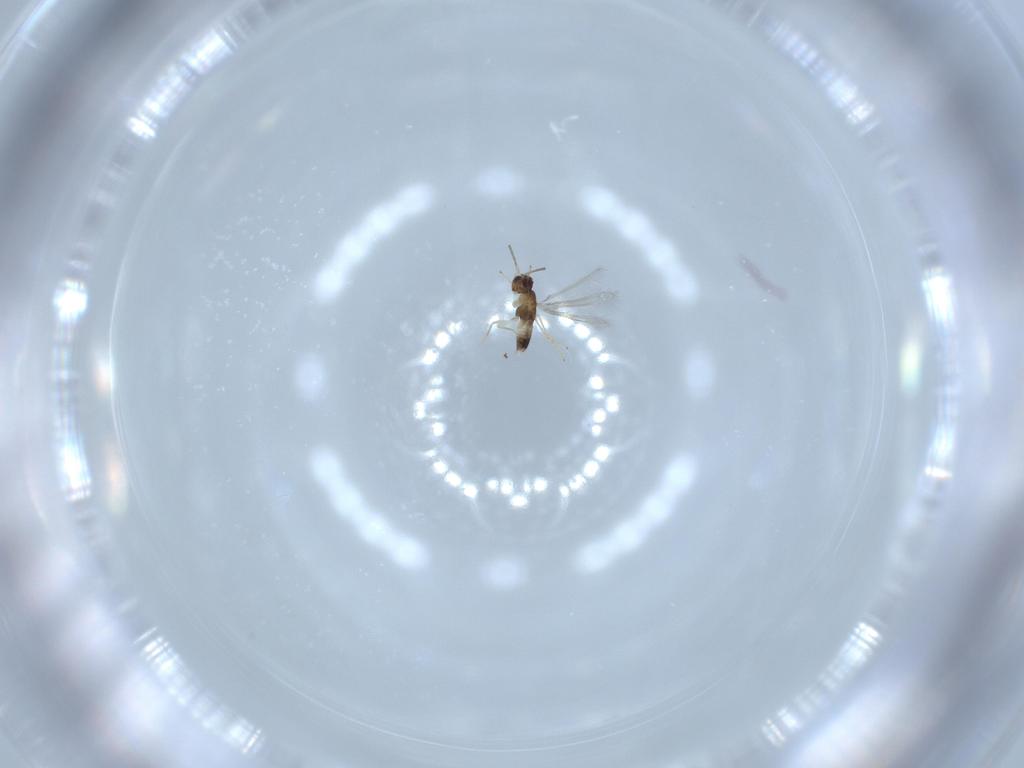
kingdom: Animalia
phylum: Arthropoda
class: Insecta
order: Hymenoptera
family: Mymaridae
